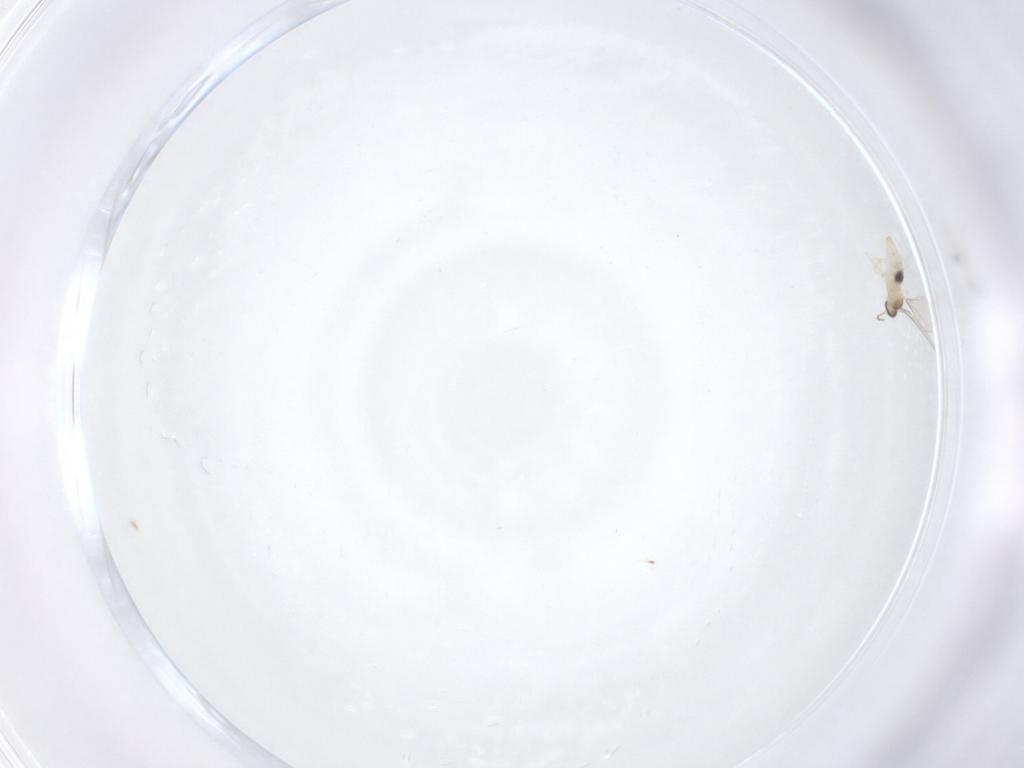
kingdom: Animalia
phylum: Arthropoda
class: Insecta
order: Diptera
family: Cecidomyiidae
